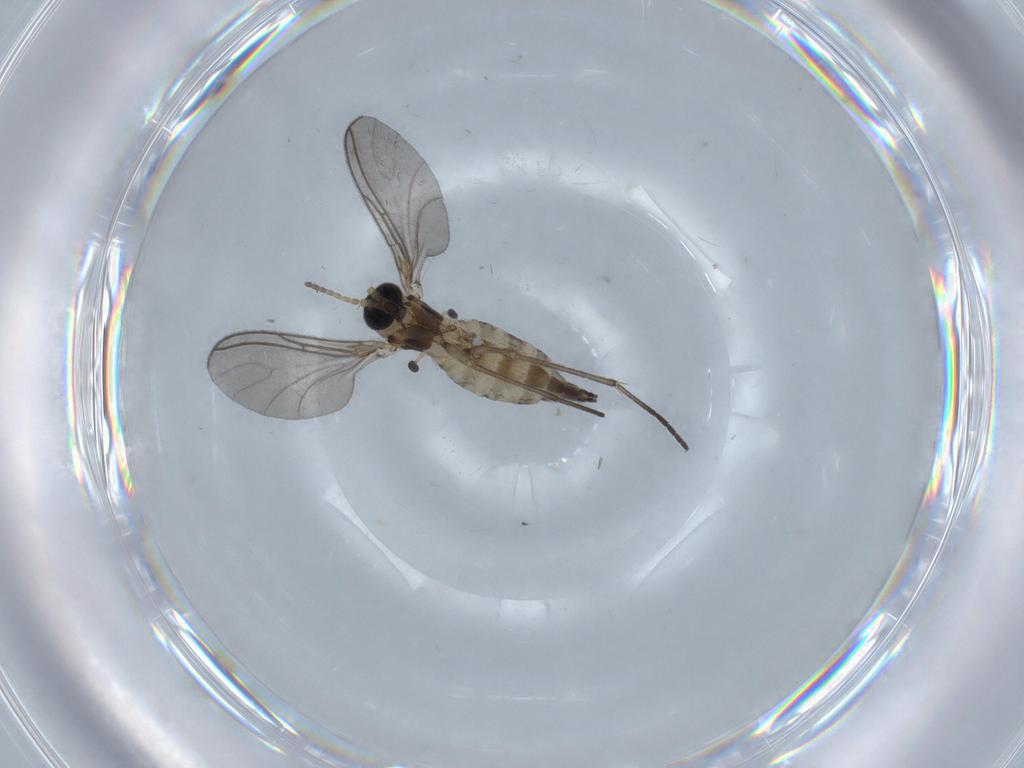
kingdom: Animalia
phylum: Arthropoda
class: Insecta
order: Diptera
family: Sciaridae
